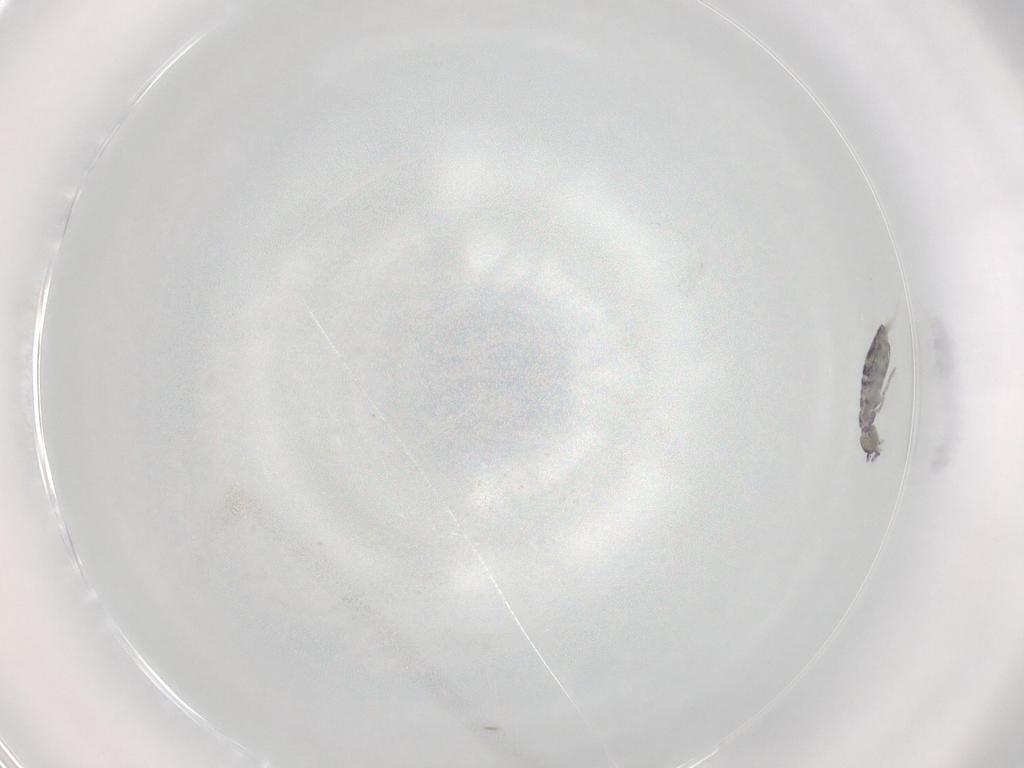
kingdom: Animalia
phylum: Arthropoda
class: Collembola
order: Entomobryomorpha
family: Entomobryidae
